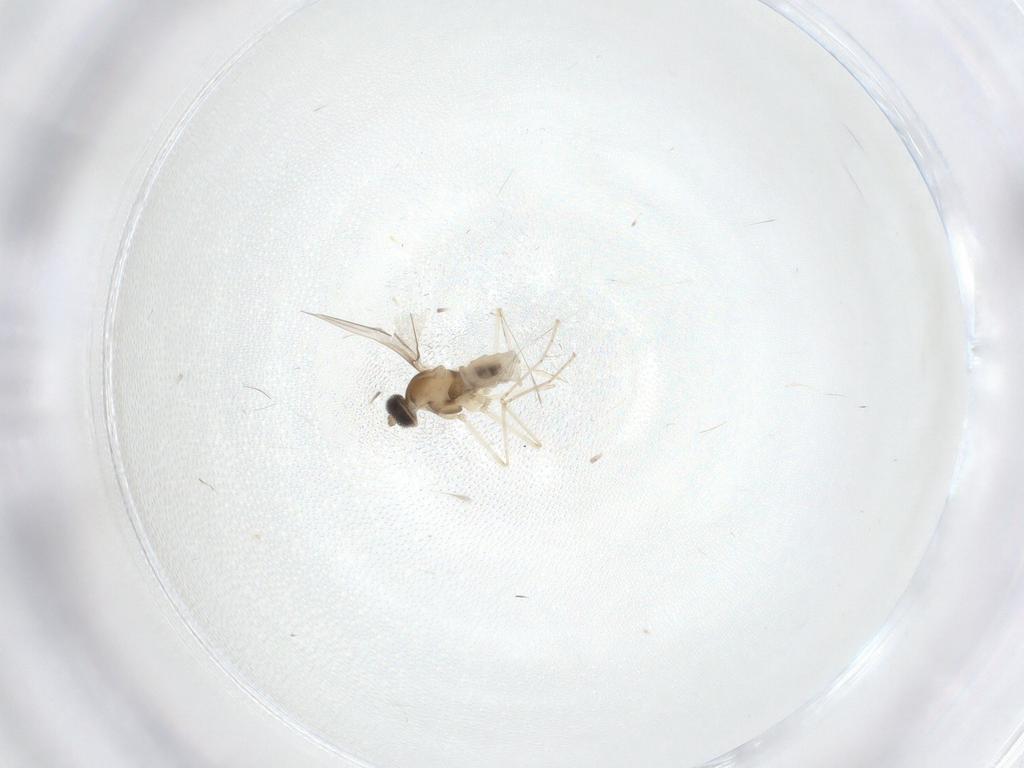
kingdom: Animalia
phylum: Arthropoda
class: Insecta
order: Diptera
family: Cecidomyiidae
